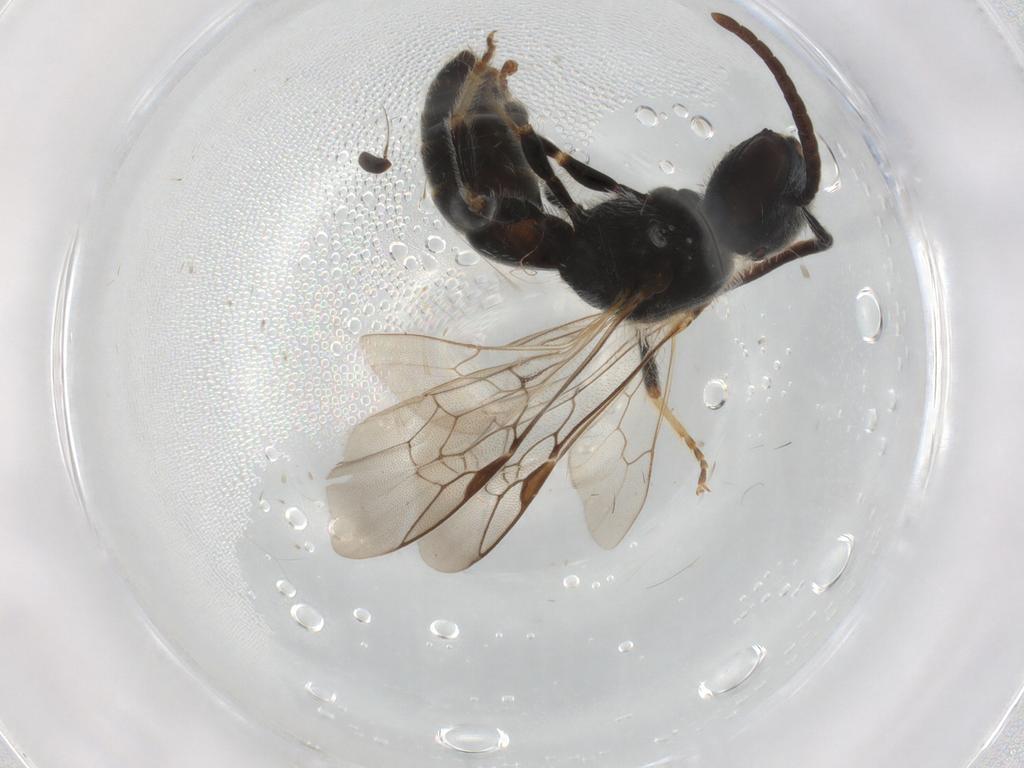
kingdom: Animalia
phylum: Arthropoda
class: Insecta
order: Hymenoptera
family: Halictidae
